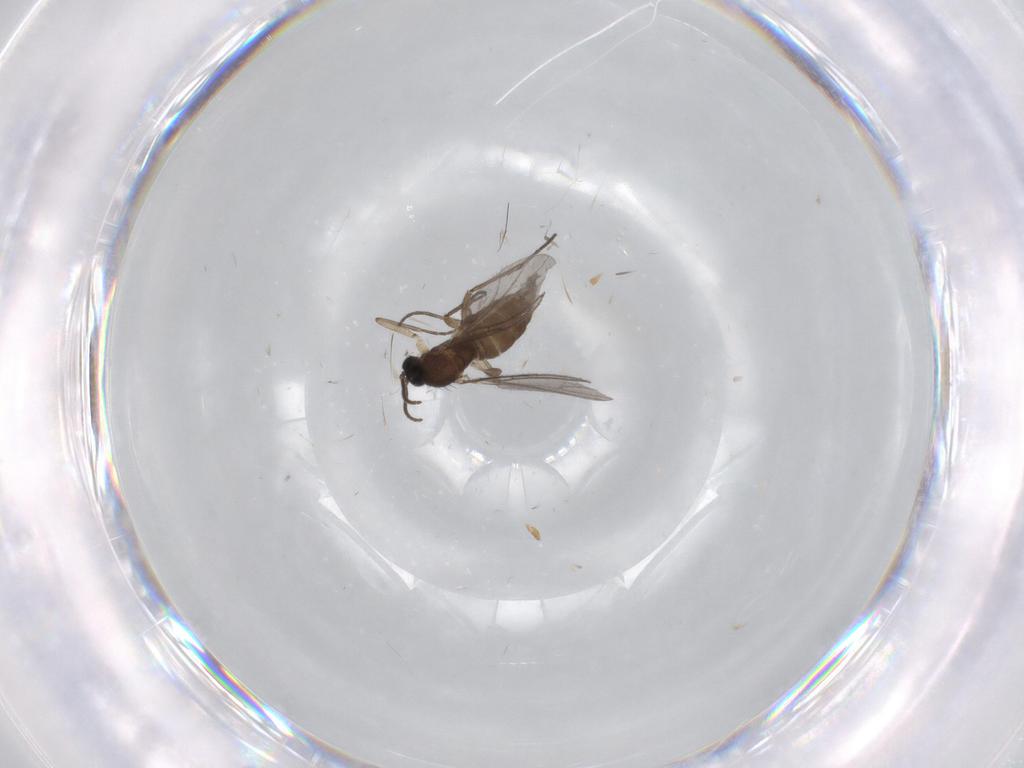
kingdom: Animalia
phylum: Arthropoda
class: Insecta
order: Diptera
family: Sciaridae
